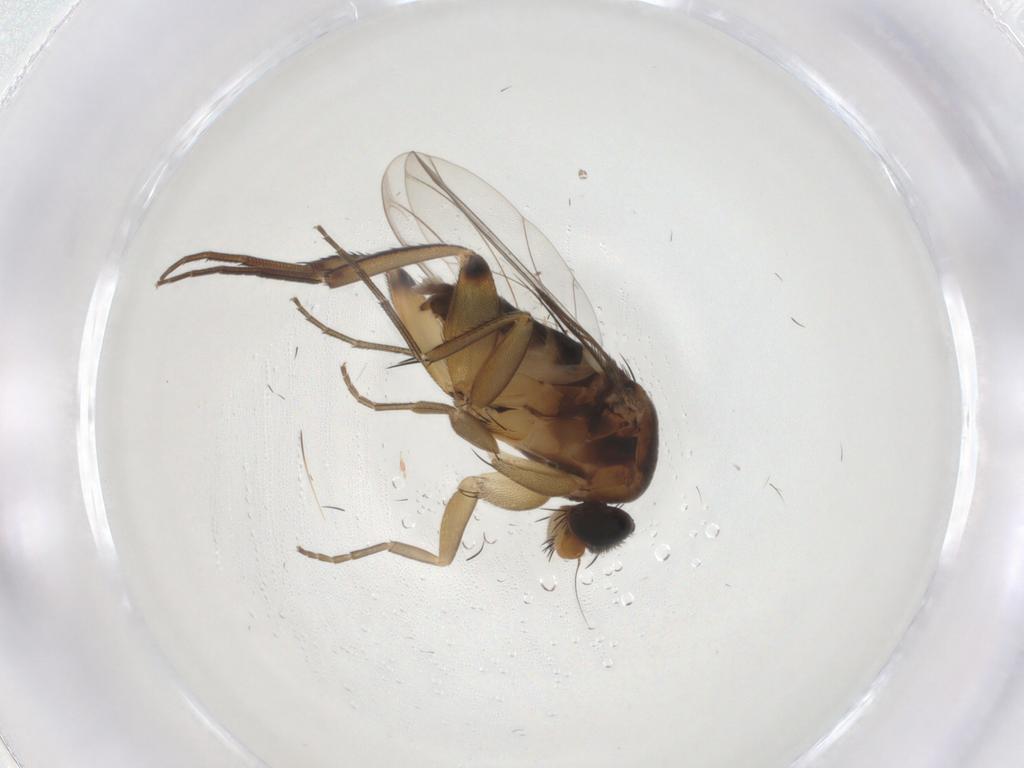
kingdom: Animalia
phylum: Arthropoda
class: Insecta
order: Diptera
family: Phoridae
